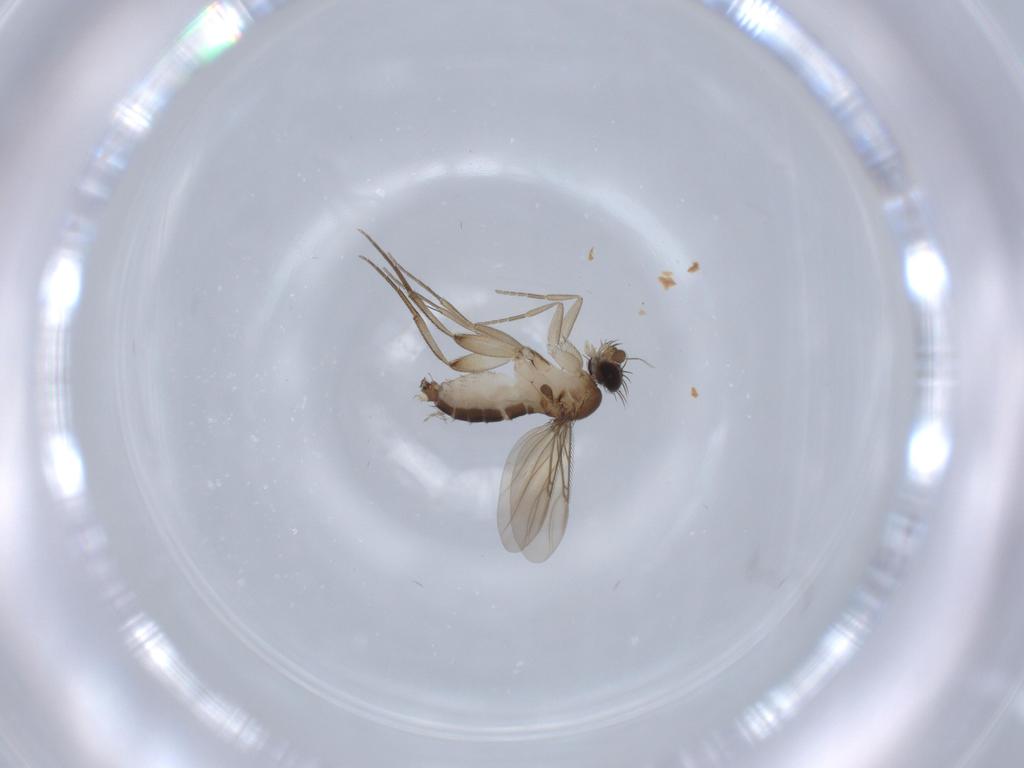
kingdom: Animalia
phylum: Arthropoda
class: Insecta
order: Diptera
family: Phoridae
